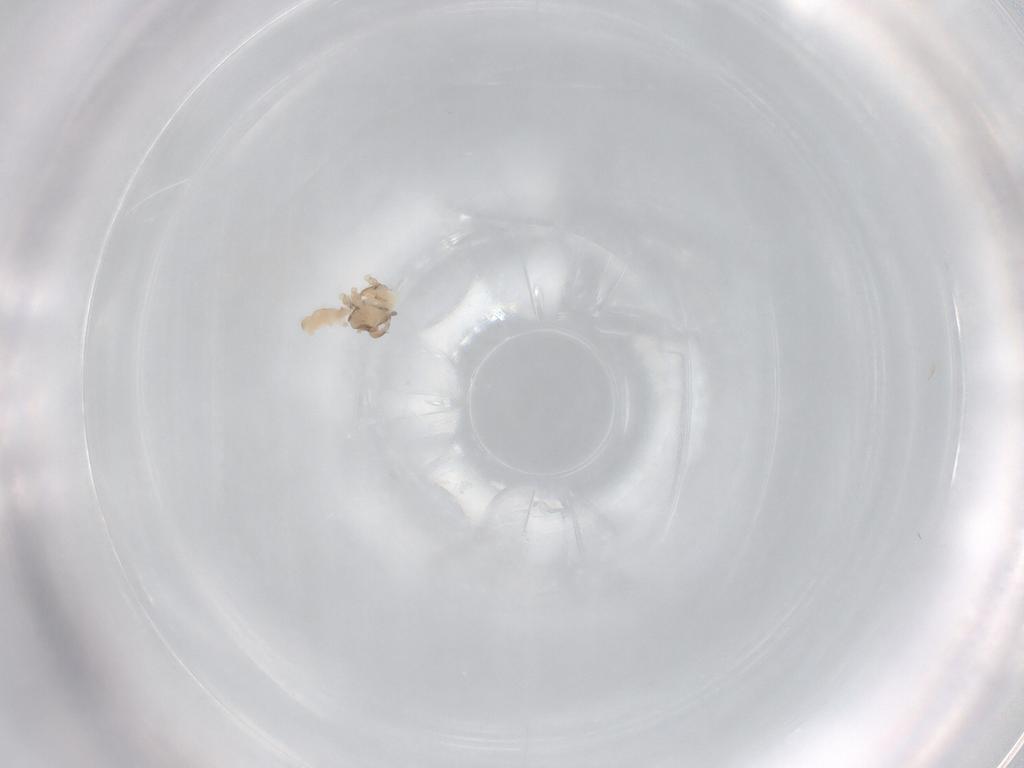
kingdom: Animalia
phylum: Arthropoda
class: Insecta
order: Diptera
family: Cecidomyiidae
